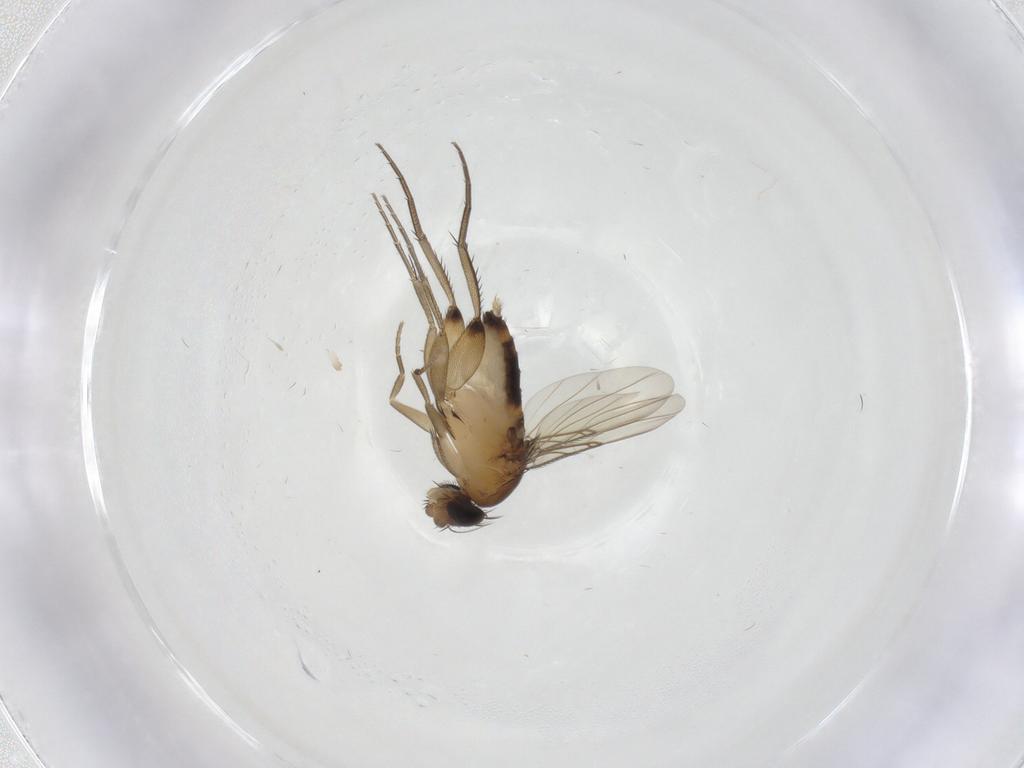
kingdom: Animalia
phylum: Arthropoda
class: Insecta
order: Diptera
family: Phoridae
